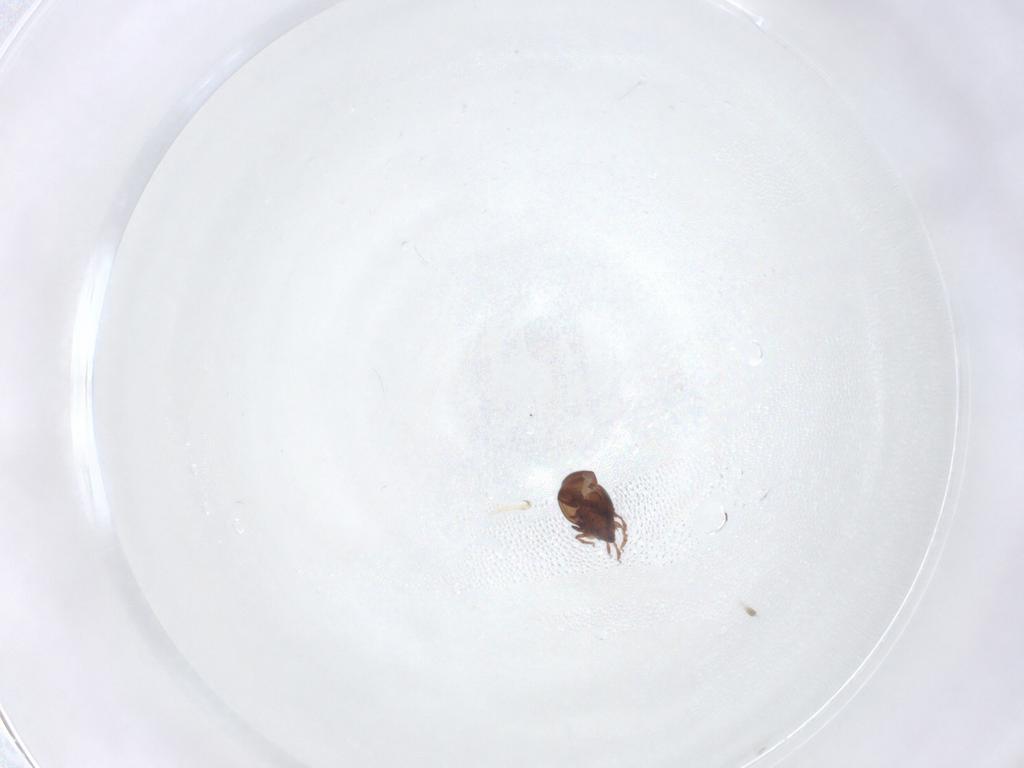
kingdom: Animalia
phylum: Arthropoda
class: Arachnida
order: Sarcoptiformes
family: Ceratozetidae
